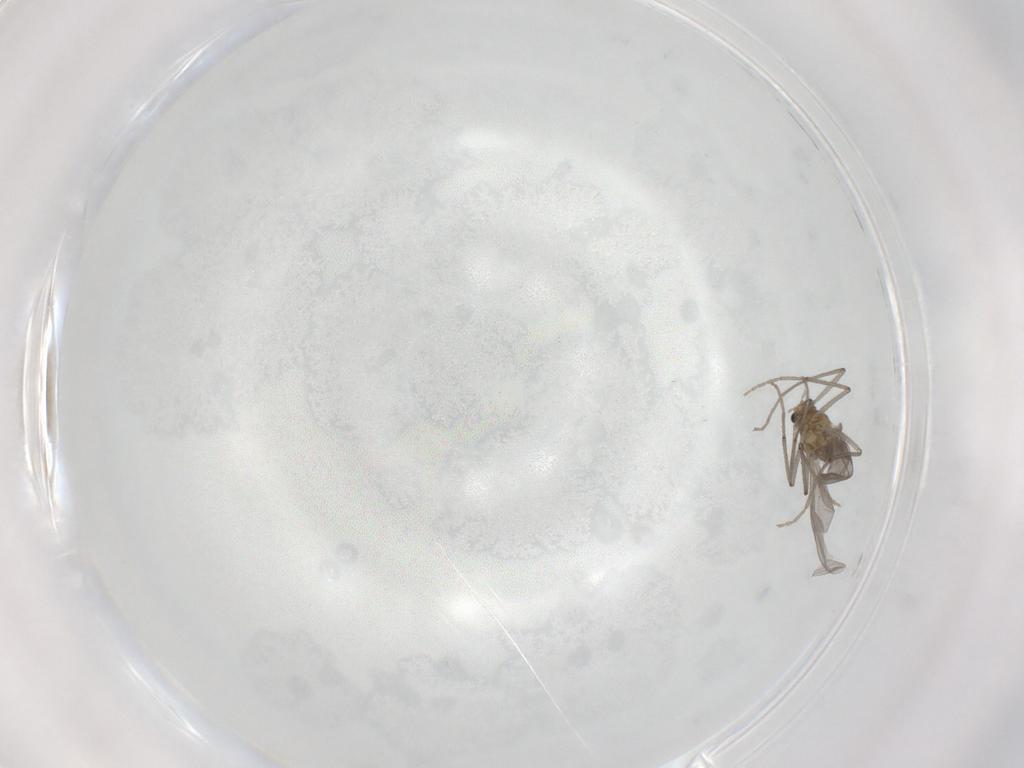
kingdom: Animalia
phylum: Arthropoda
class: Insecta
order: Diptera
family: Chironomidae
